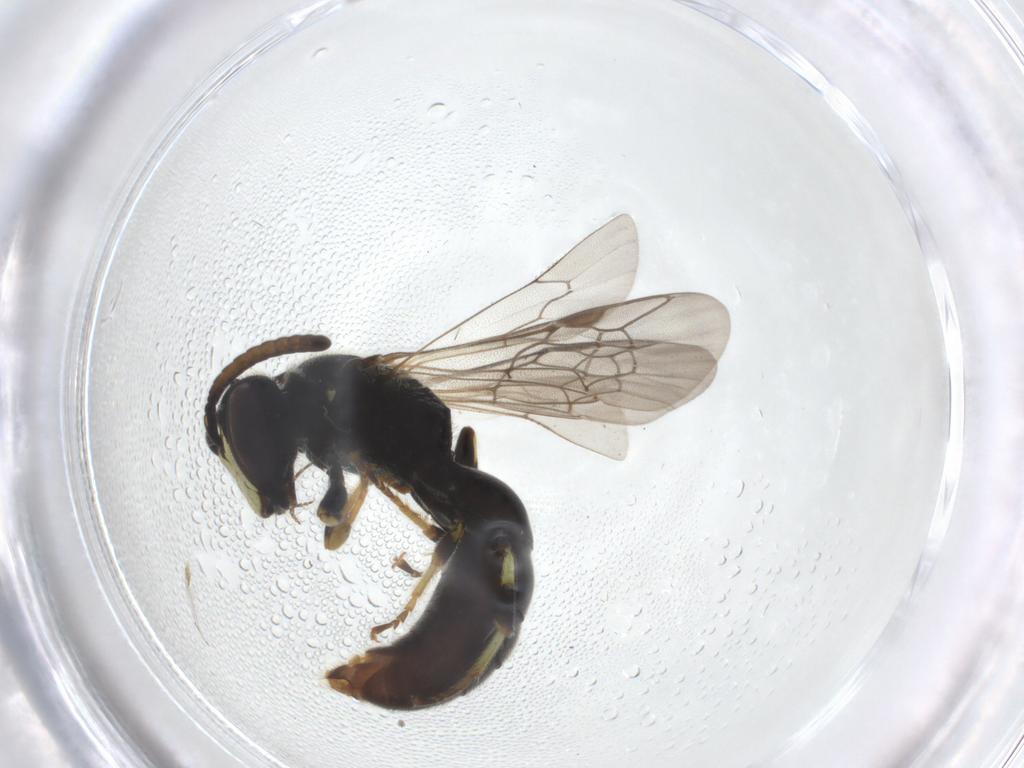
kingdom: Animalia
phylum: Arthropoda
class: Insecta
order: Hymenoptera
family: Colletidae
